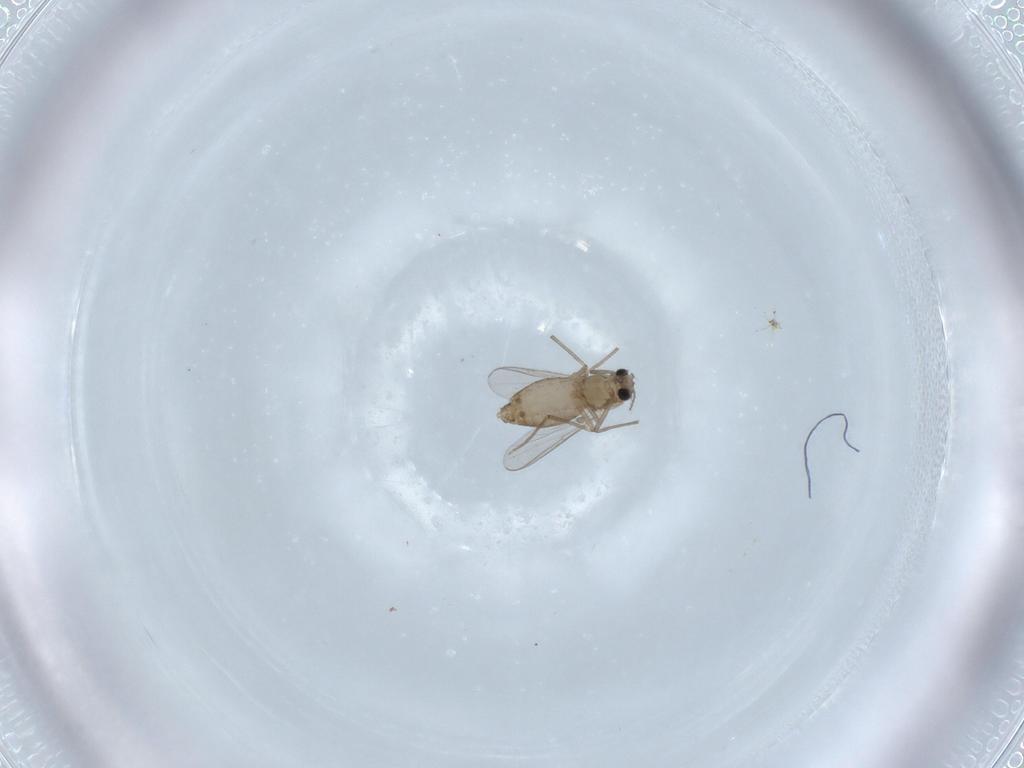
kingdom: Animalia
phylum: Arthropoda
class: Insecta
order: Diptera
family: Chironomidae
